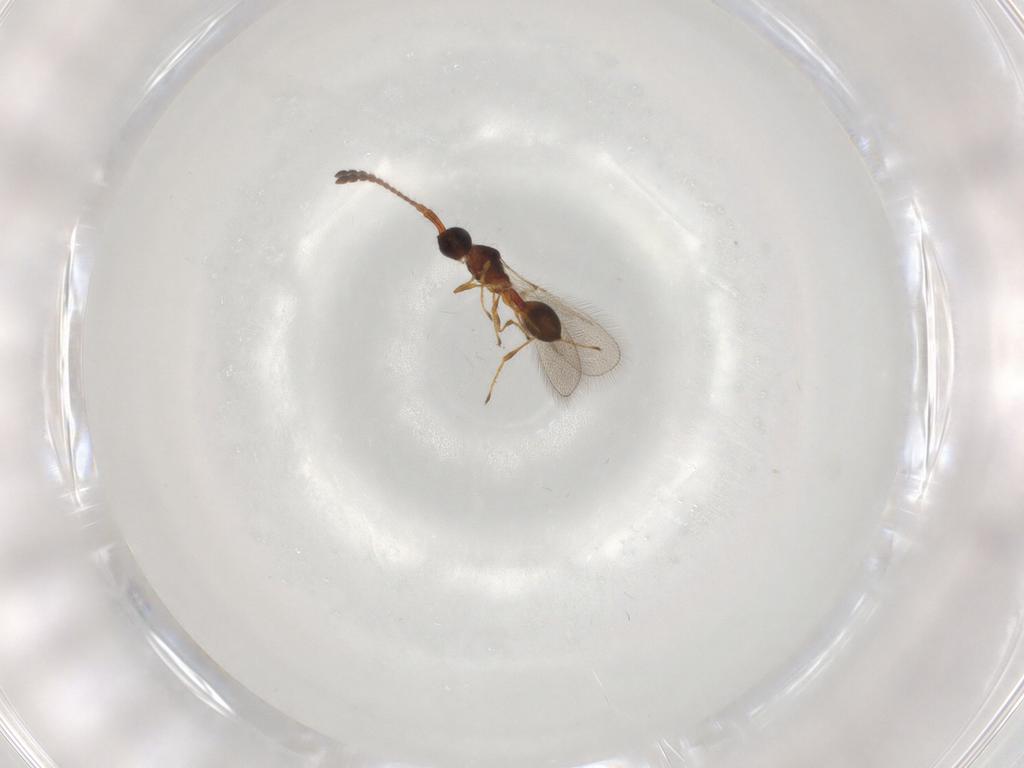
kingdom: Animalia
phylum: Arthropoda
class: Insecta
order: Hymenoptera
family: Diapriidae
